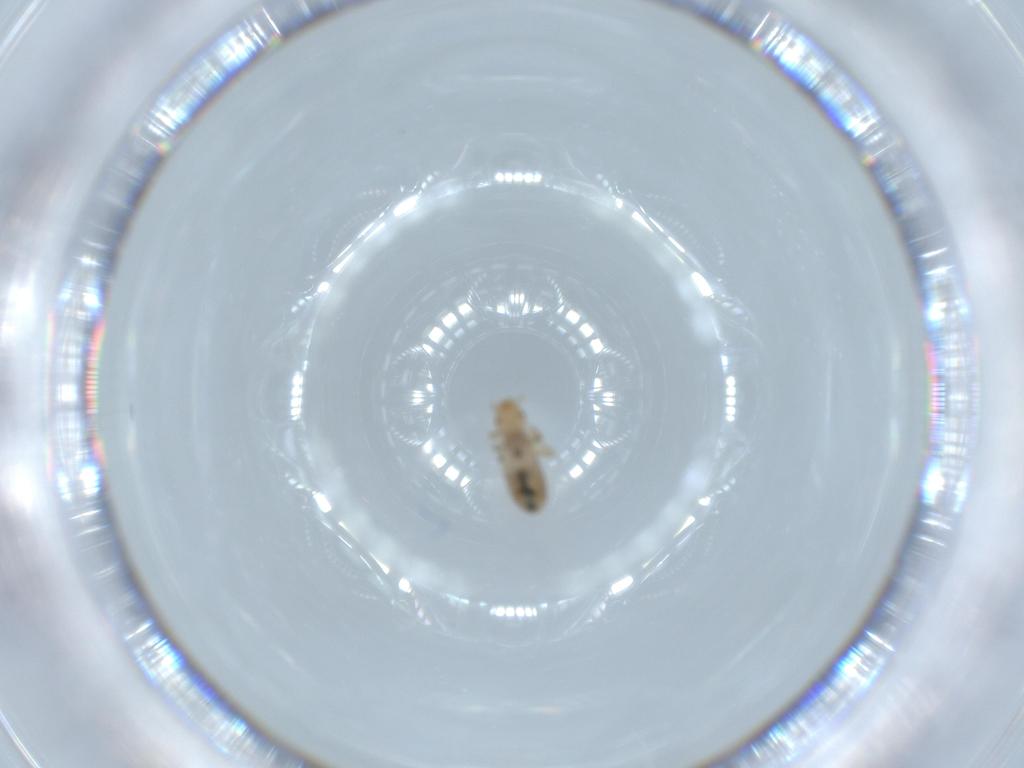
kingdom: Animalia
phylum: Arthropoda
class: Insecta
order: Psocodea
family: Liposcelididae
